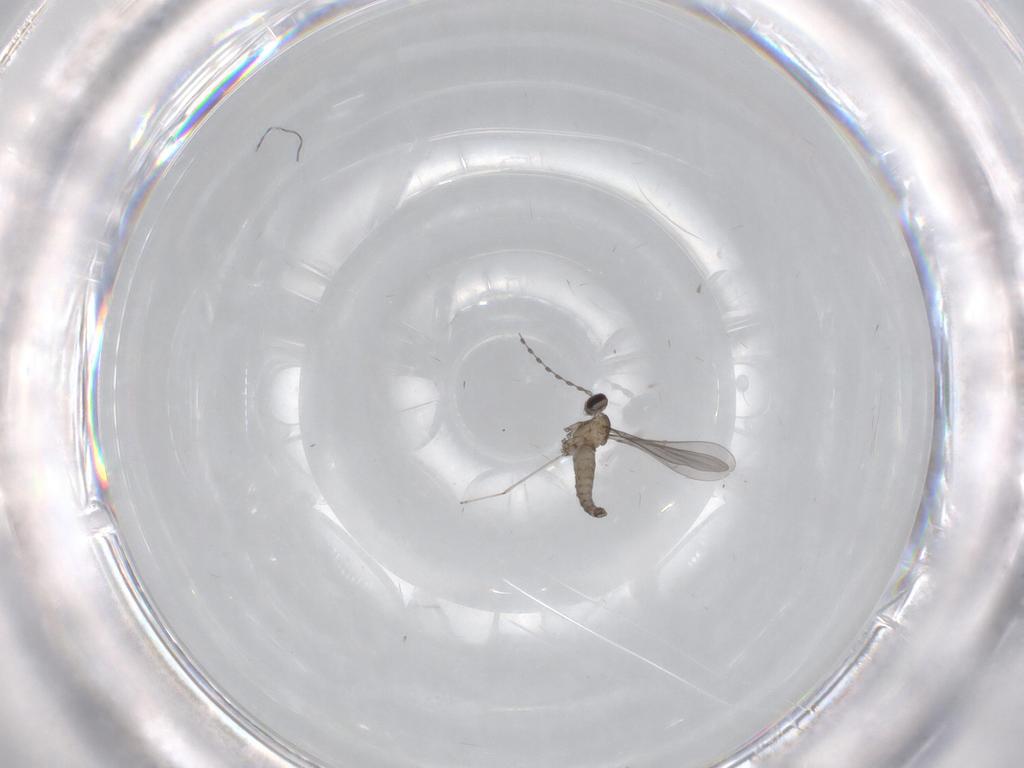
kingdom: Animalia
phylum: Arthropoda
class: Insecta
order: Diptera
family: Cecidomyiidae
